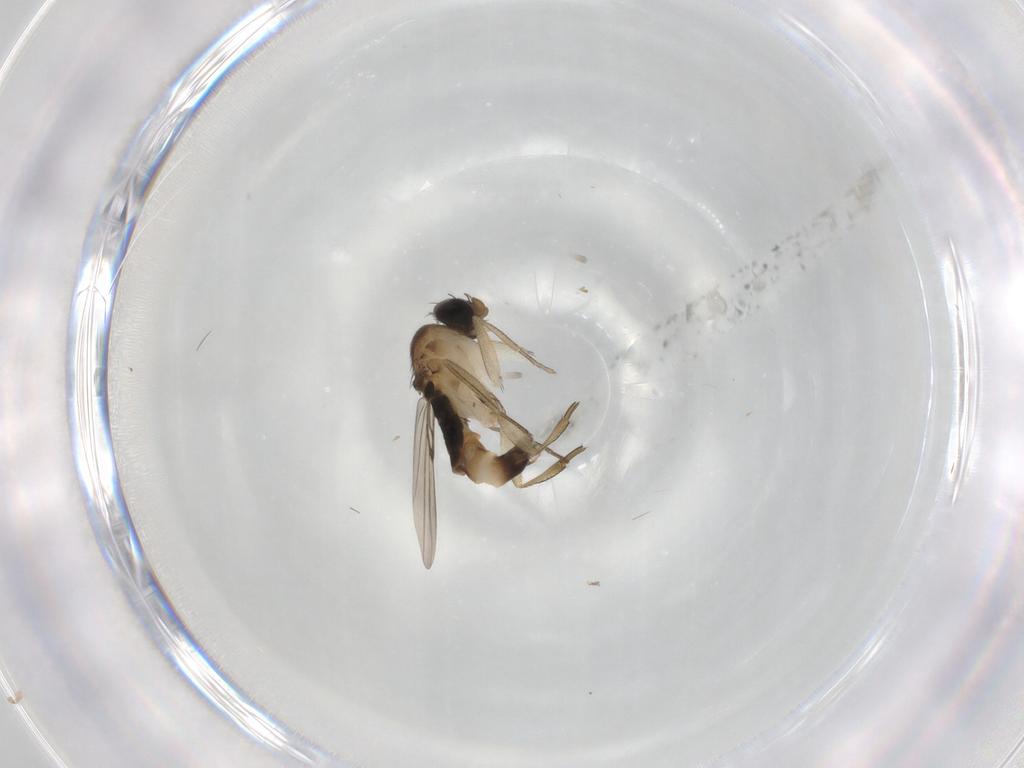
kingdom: Animalia
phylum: Arthropoda
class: Insecta
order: Diptera
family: Phoridae
